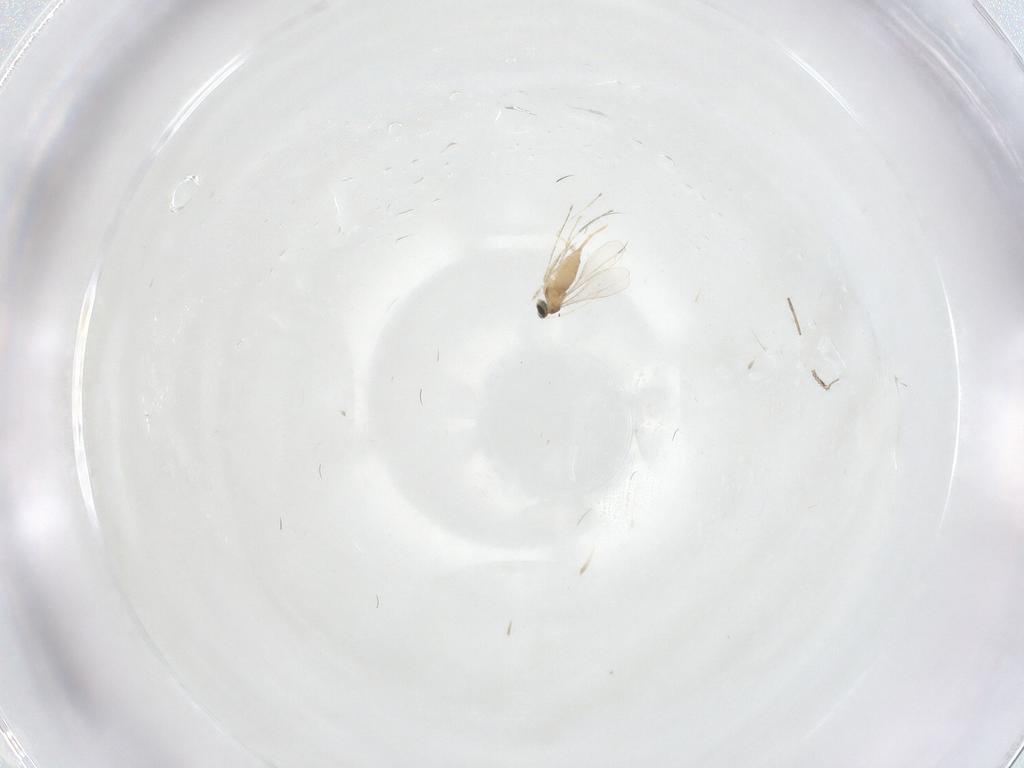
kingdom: Animalia
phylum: Arthropoda
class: Insecta
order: Diptera
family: Ceratopogonidae
